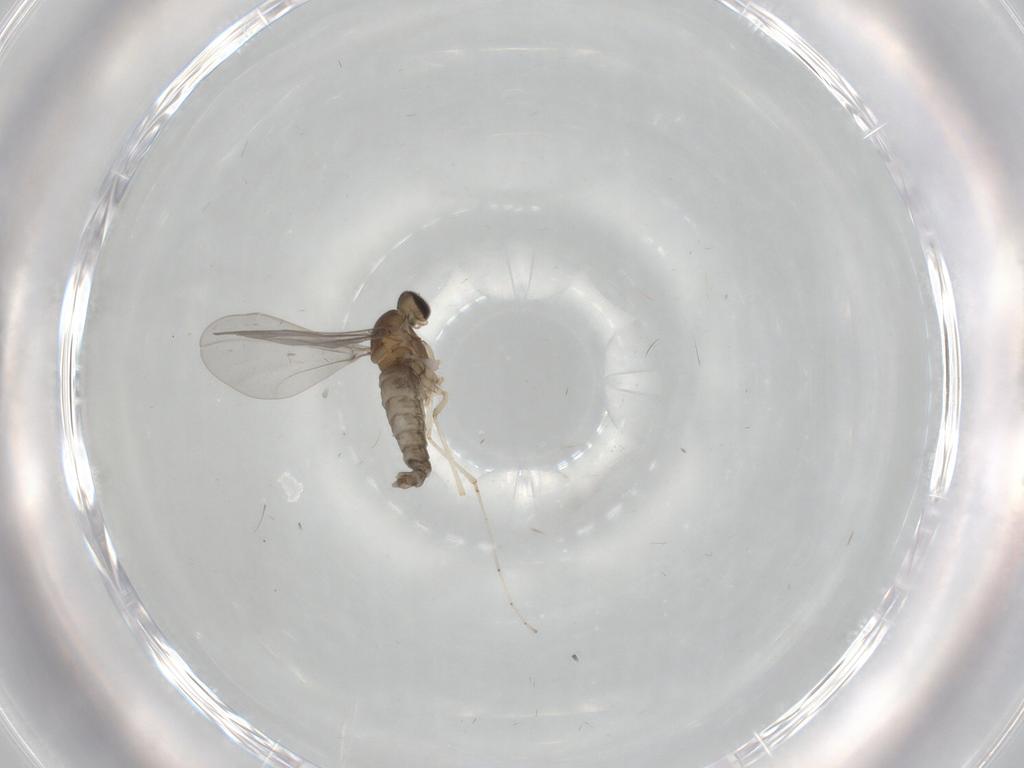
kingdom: Animalia
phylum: Arthropoda
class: Insecta
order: Diptera
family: Cecidomyiidae
